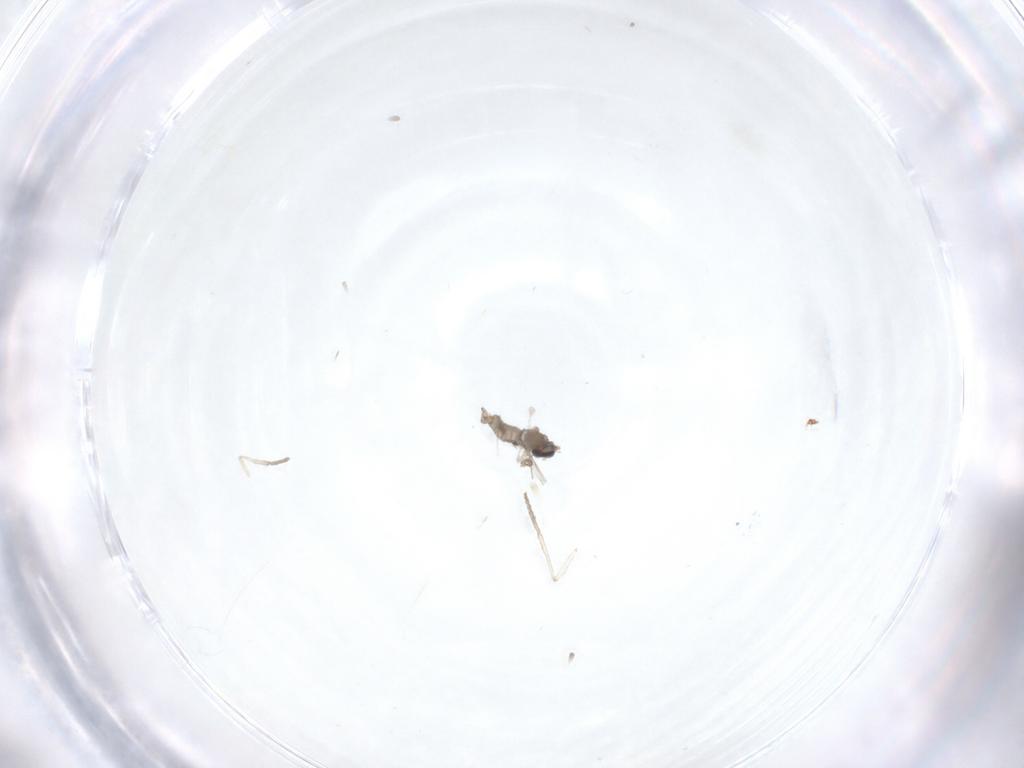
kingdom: Animalia
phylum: Arthropoda
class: Insecta
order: Diptera
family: Cecidomyiidae
